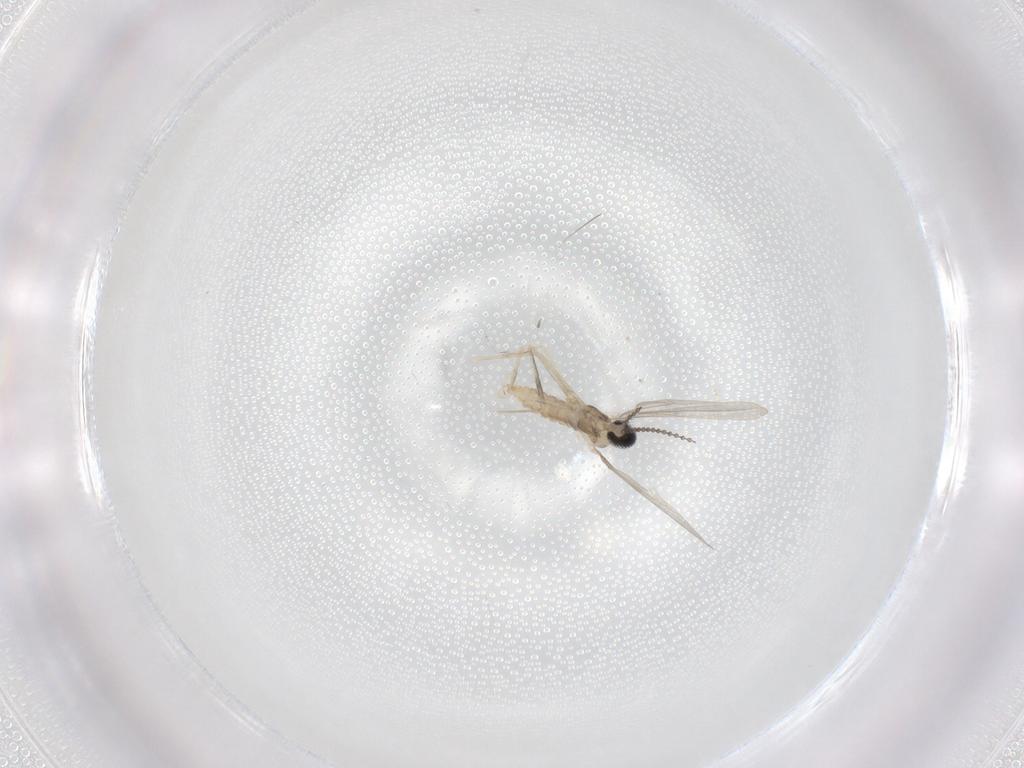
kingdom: Animalia
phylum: Arthropoda
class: Insecta
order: Diptera
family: Cecidomyiidae
